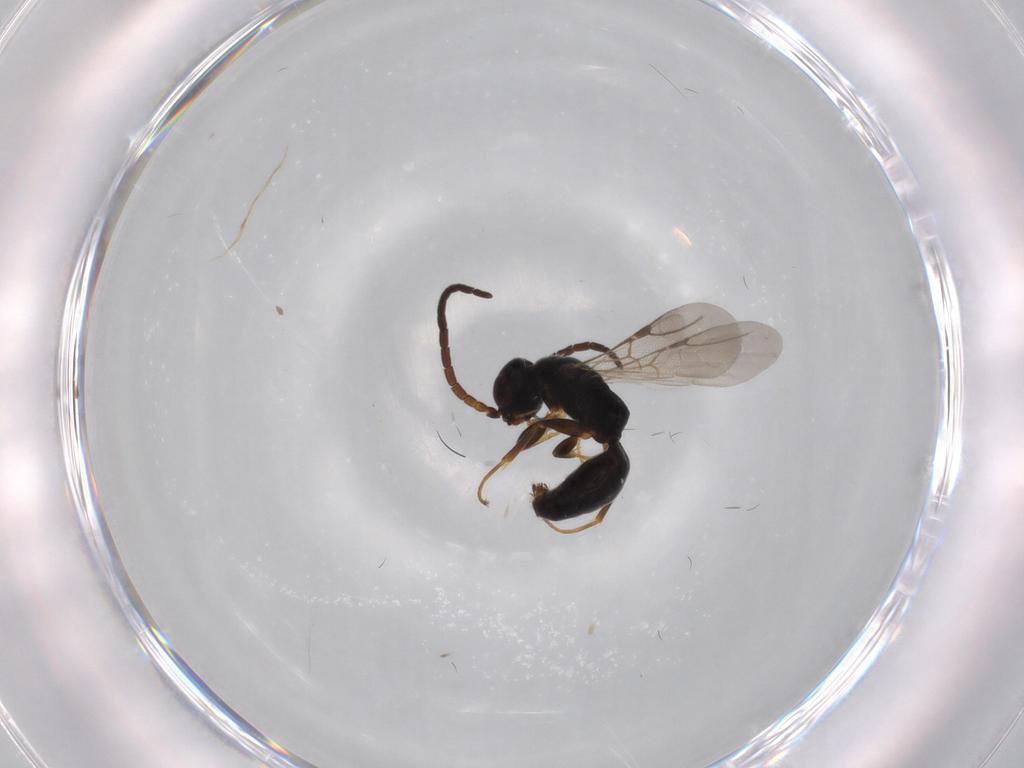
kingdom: Animalia
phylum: Arthropoda
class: Insecta
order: Hymenoptera
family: Bethylidae
